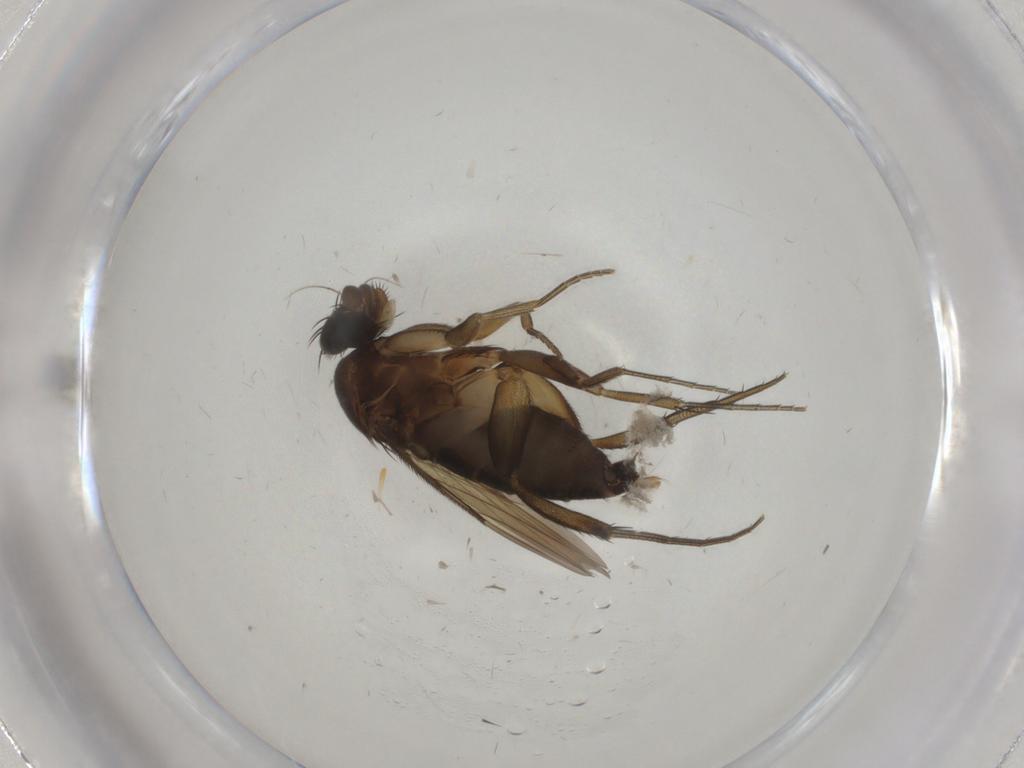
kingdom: Animalia
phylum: Arthropoda
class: Insecta
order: Diptera
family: Phoridae
